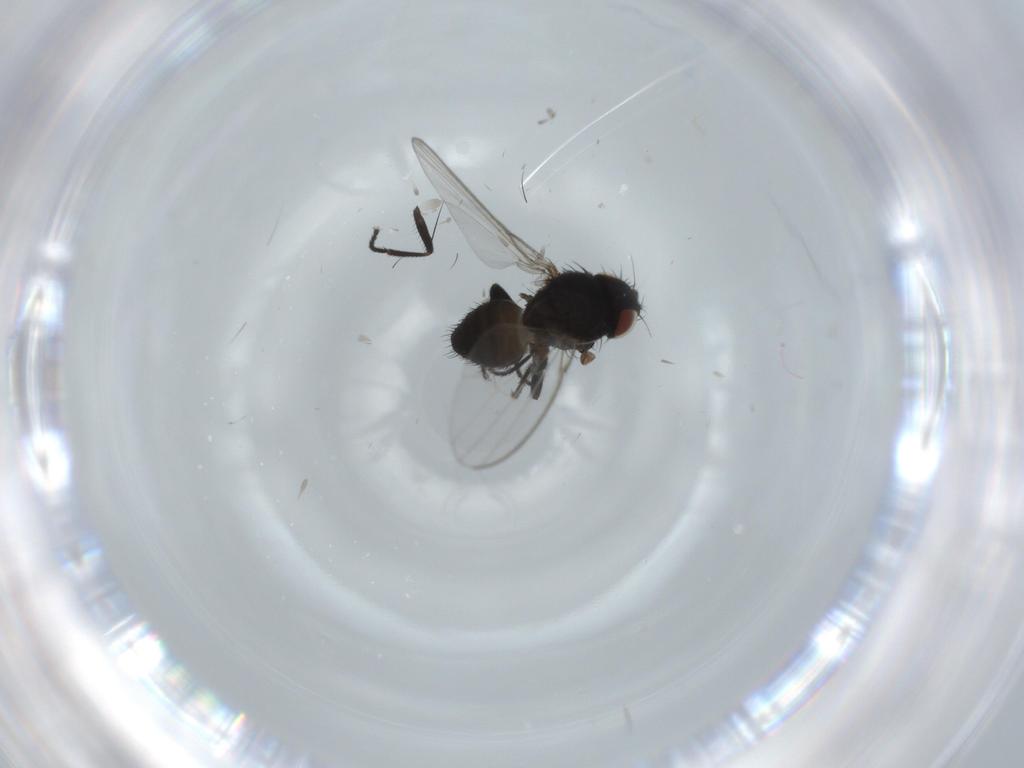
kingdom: Animalia
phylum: Arthropoda
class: Insecta
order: Diptera
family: Milichiidae
